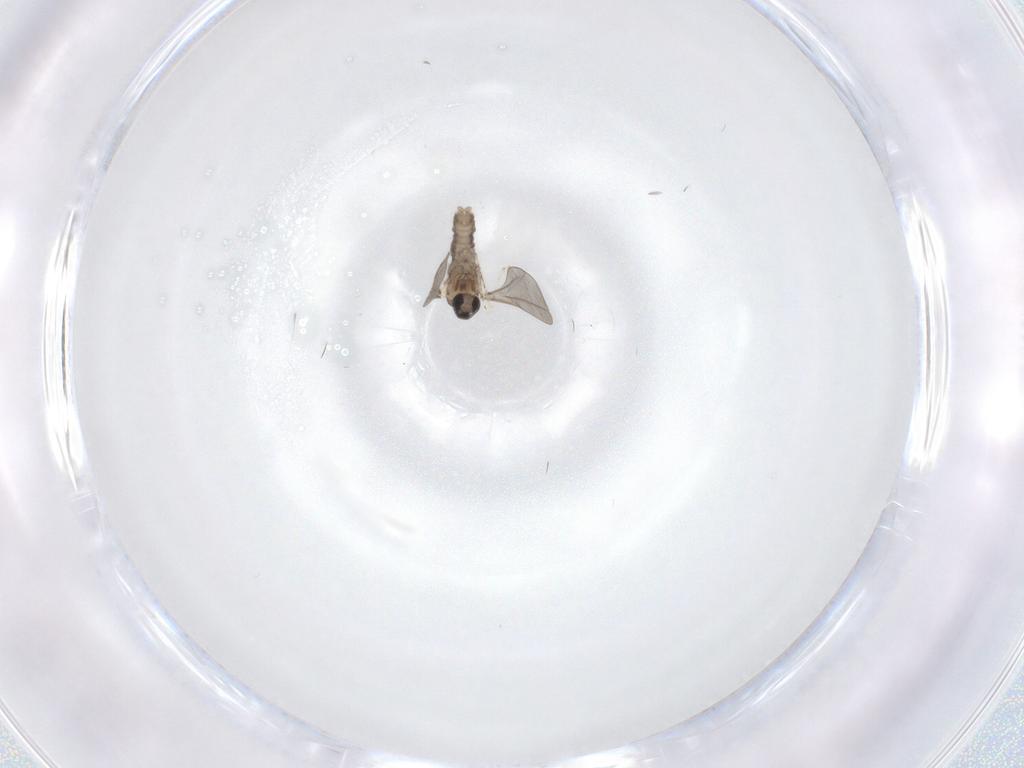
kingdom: Animalia
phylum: Arthropoda
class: Insecta
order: Diptera
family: Cecidomyiidae
